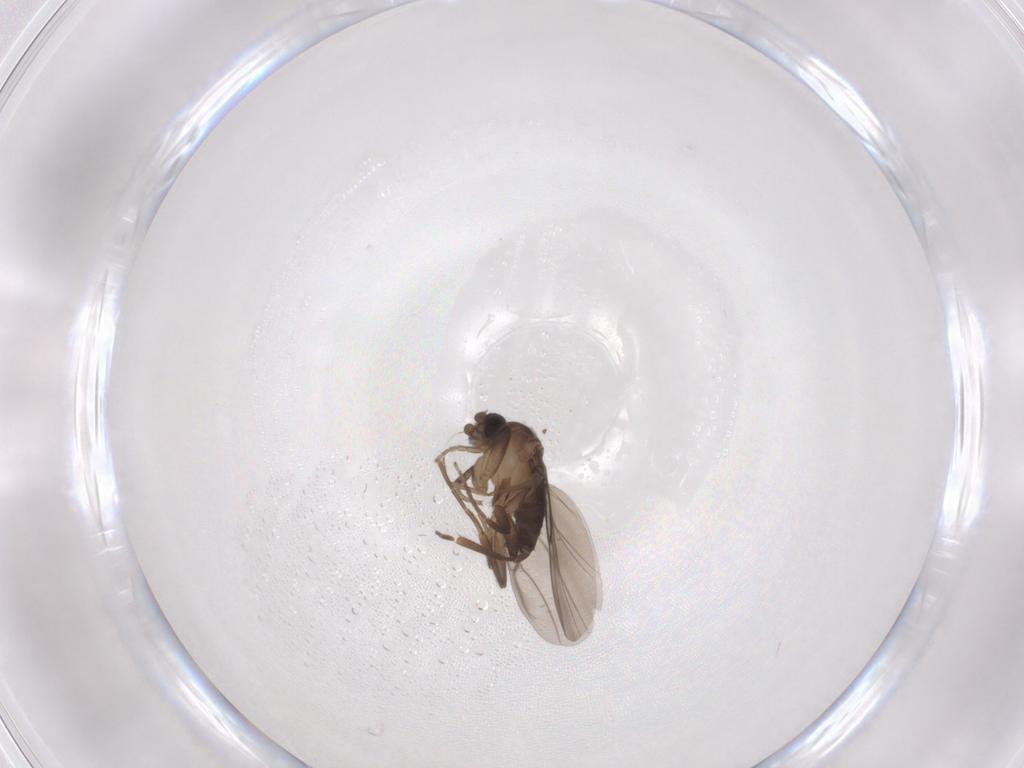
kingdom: Animalia
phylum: Arthropoda
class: Insecta
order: Diptera
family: Phoridae
